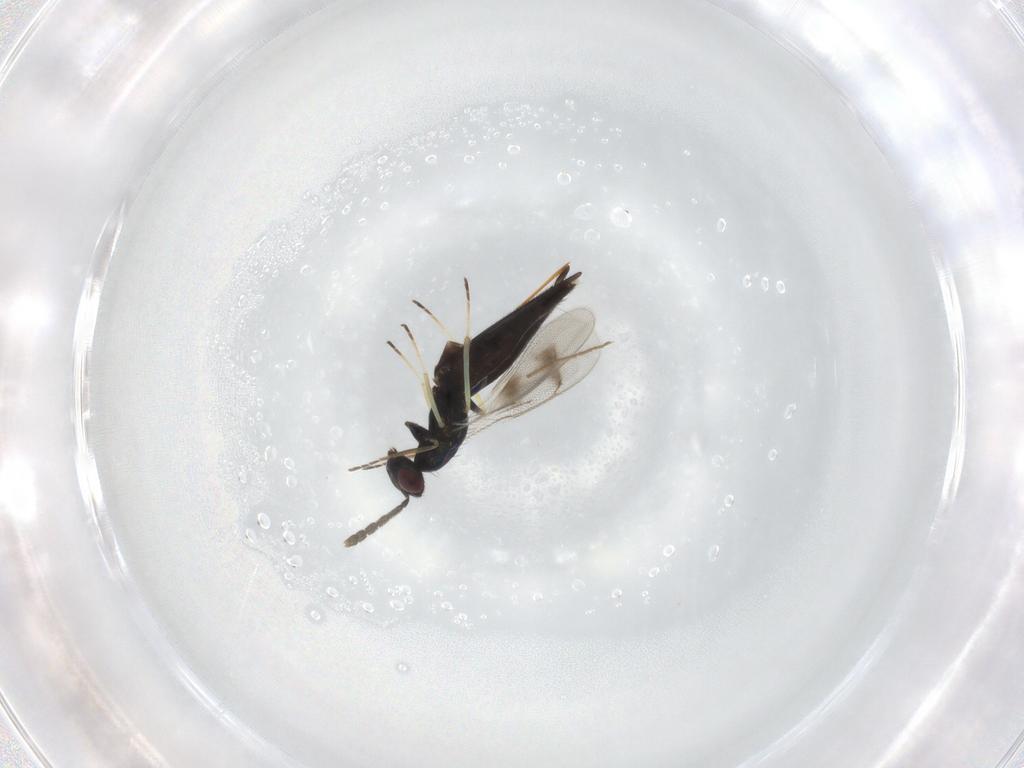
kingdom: Animalia
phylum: Arthropoda
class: Insecta
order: Hymenoptera
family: Eulophidae
